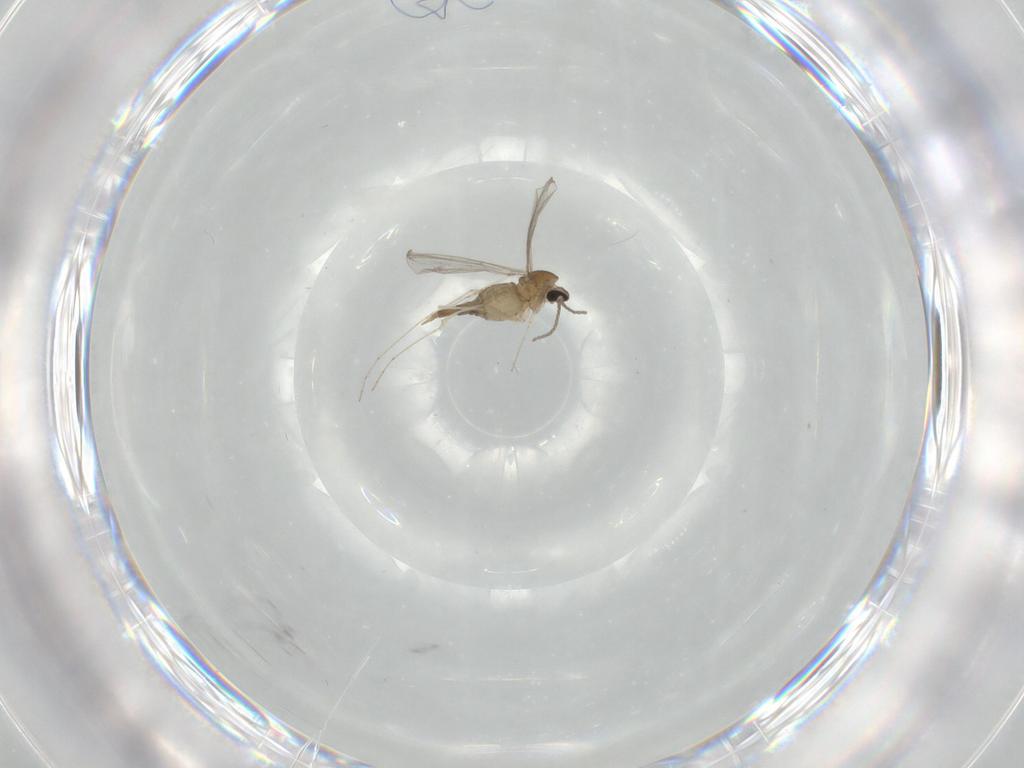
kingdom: Animalia
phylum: Arthropoda
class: Insecta
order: Diptera
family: Cecidomyiidae
